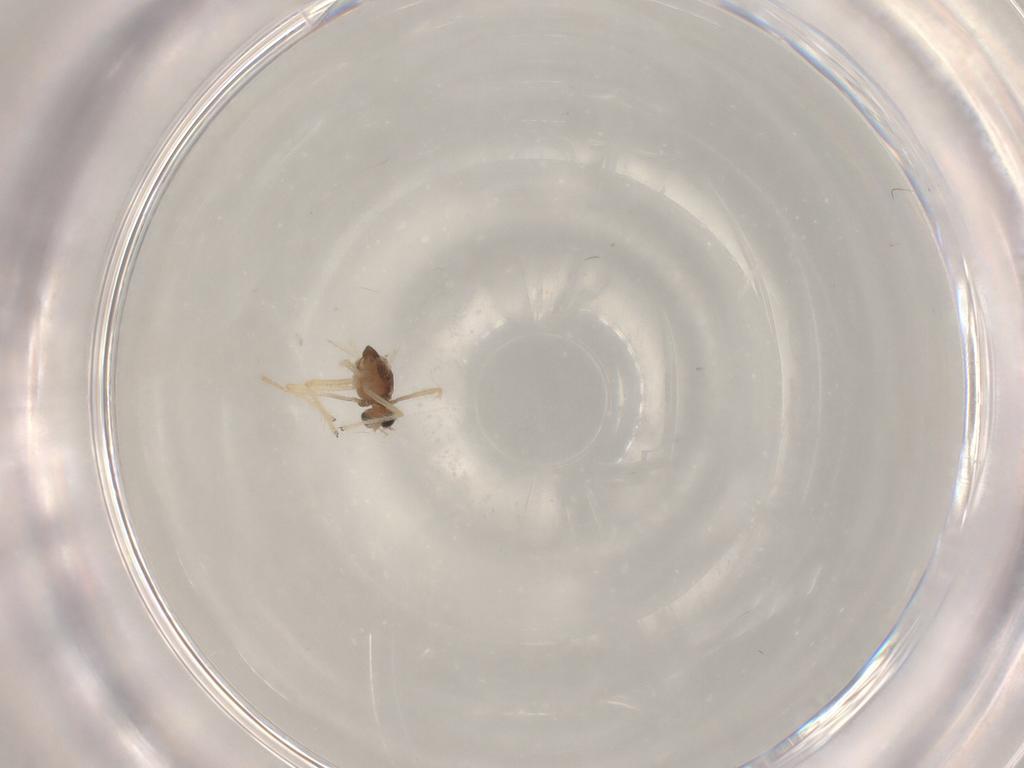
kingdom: Animalia
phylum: Arthropoda
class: Insecta
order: Diptera
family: Chironomidae
